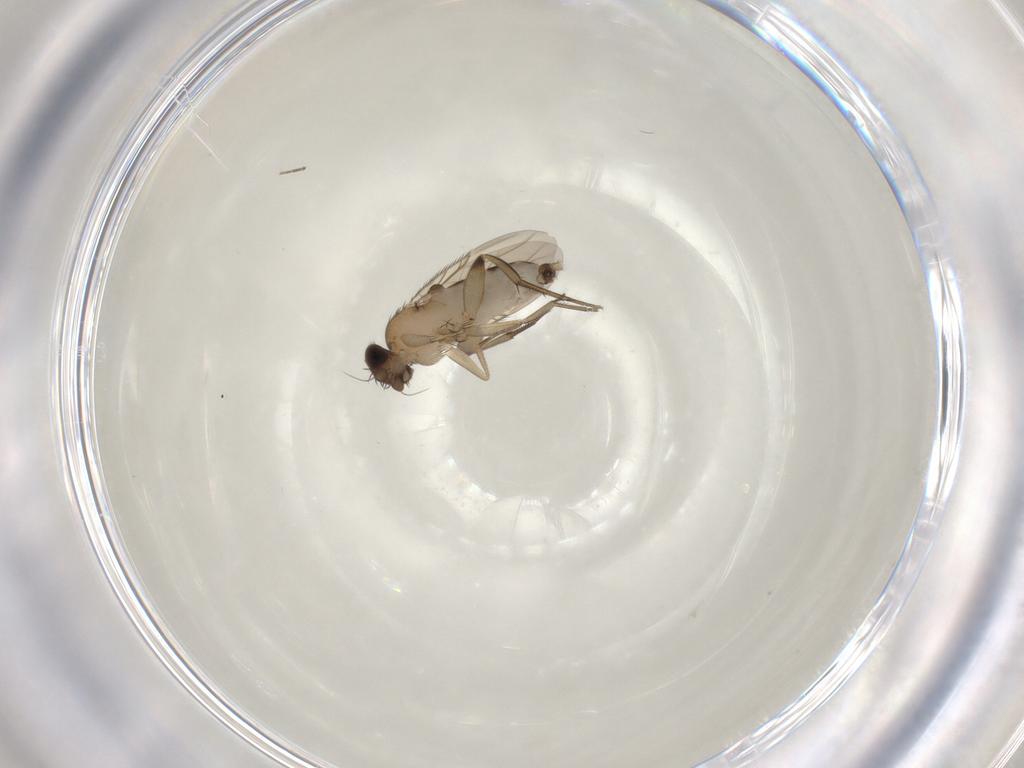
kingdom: Animalia
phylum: Arthropoda
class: Insecta
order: Diptera
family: Phoridae
